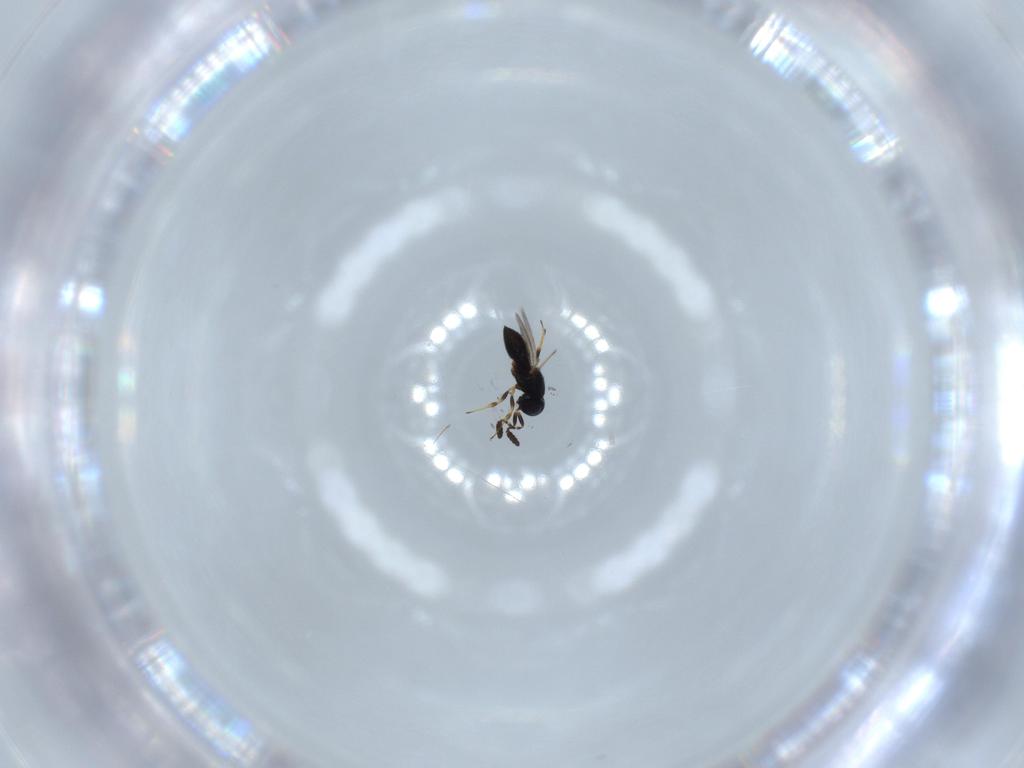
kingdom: Animalia
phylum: Arthropoda
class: Insecta
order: Hymenoptera
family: Scelionidae
